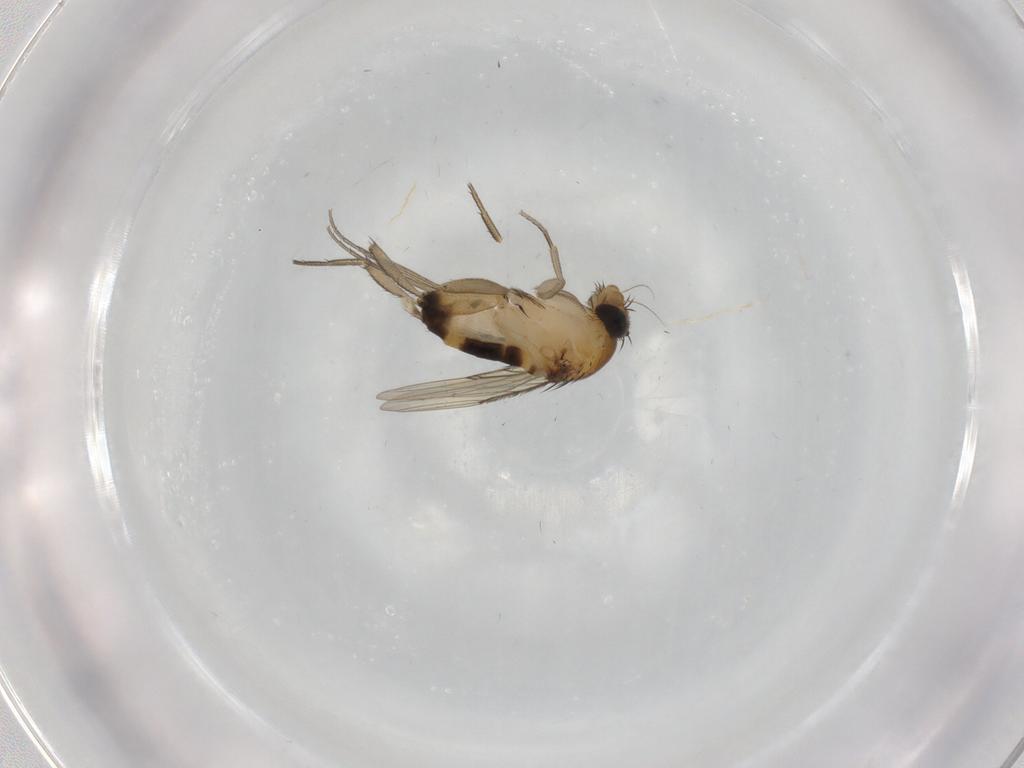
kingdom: Animalia
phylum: Arthropoda
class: Insecta
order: Diptera
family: Phoridae
